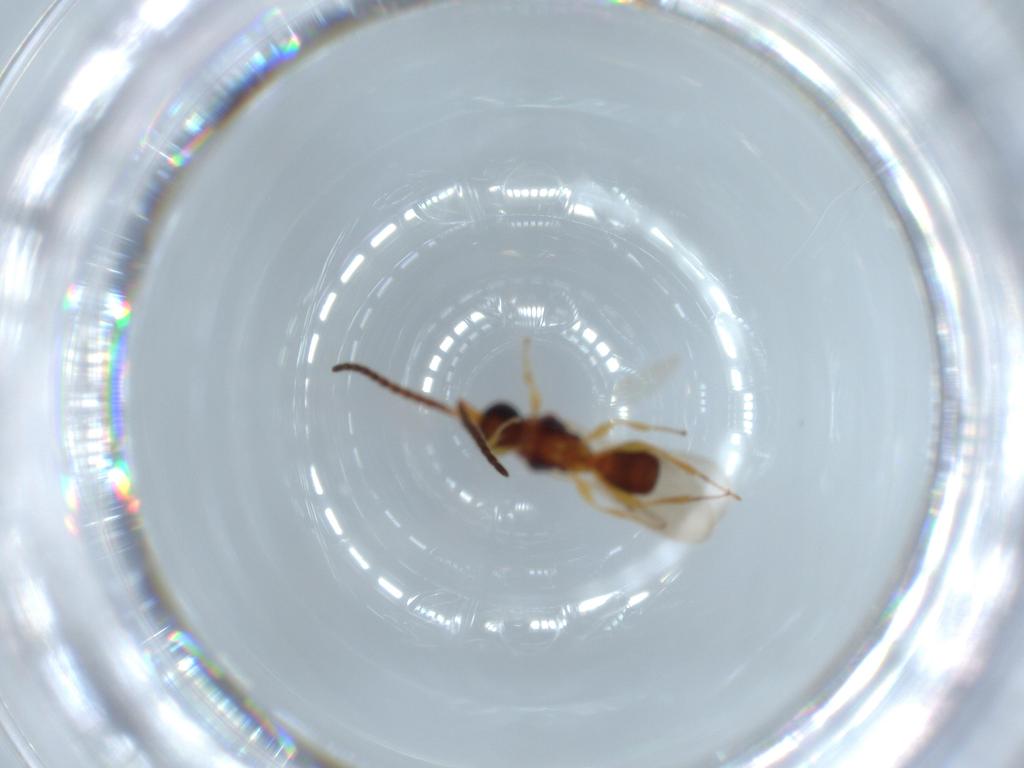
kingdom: Animalia
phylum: Arthropoda
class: Insecta
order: Hymenoptera
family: Diapriidae
